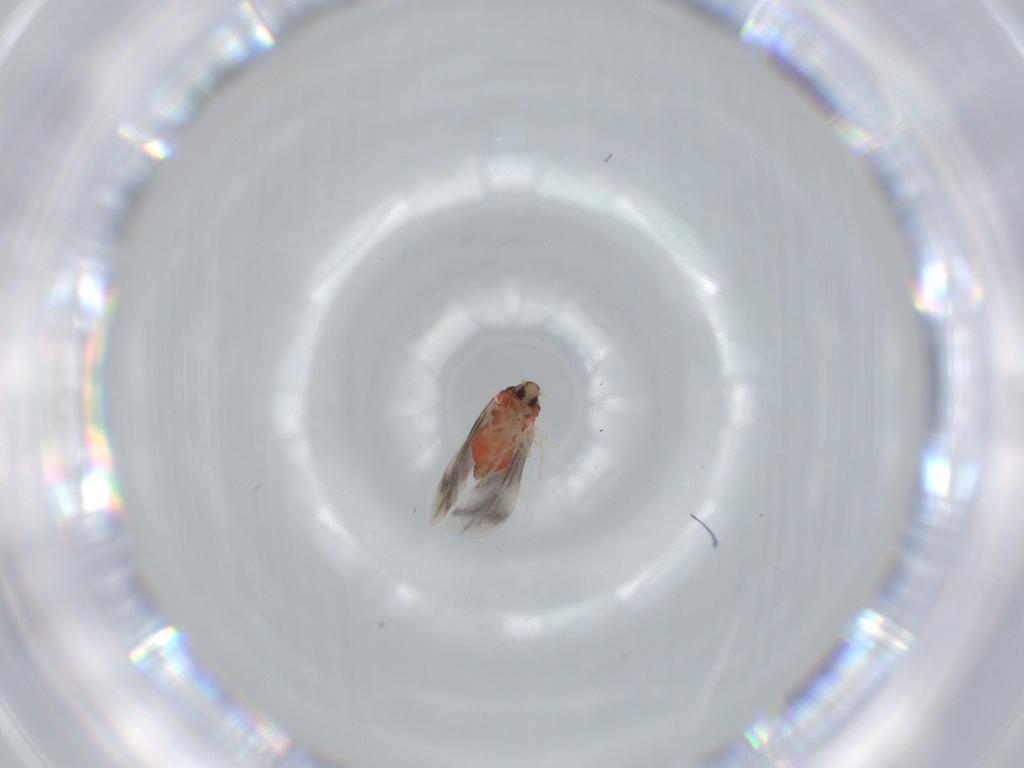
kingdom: Animalia
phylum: Arthropoda
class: Insecta
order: Hemiptera
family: Aleyrodidae
